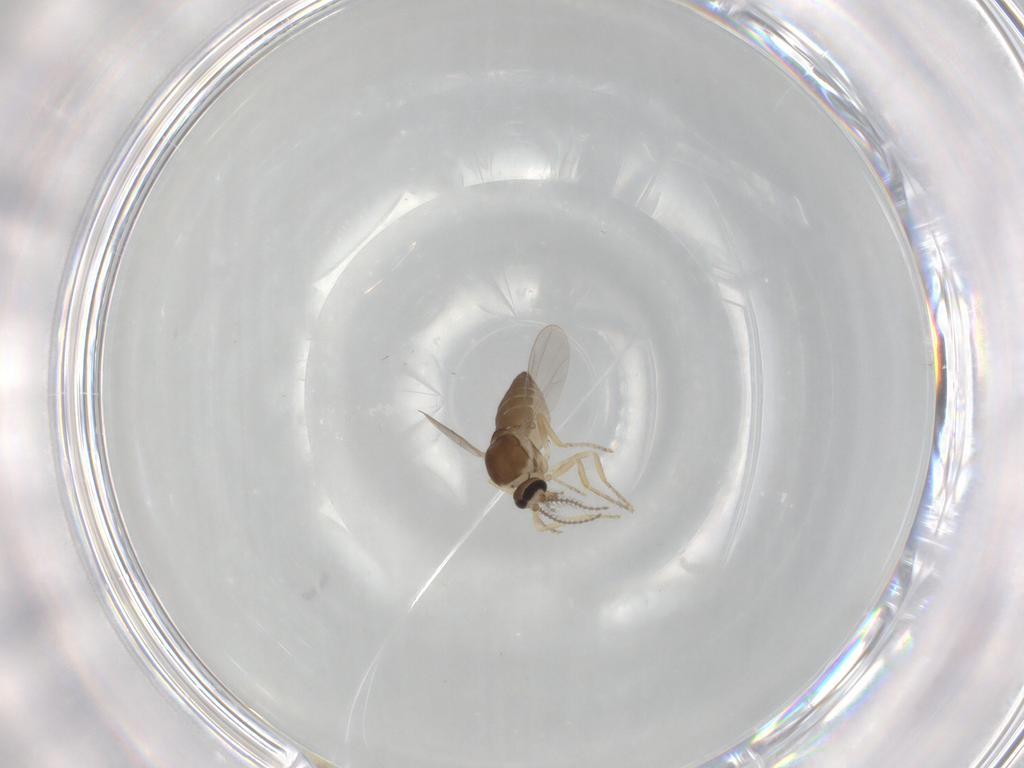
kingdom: Animalia
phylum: Arthropoda
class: Insecta
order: Diptera
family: Ceratopogonidae
